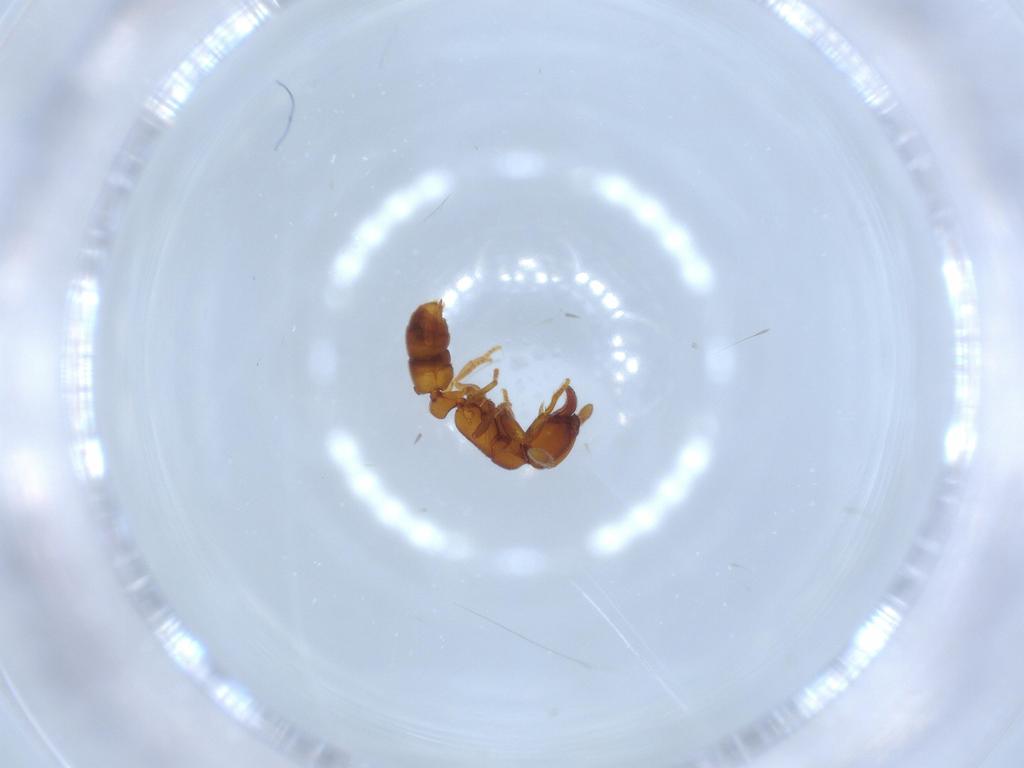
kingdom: Animalia
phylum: Arthropoda
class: Insecta
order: Hymenoptera
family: Formicidae
